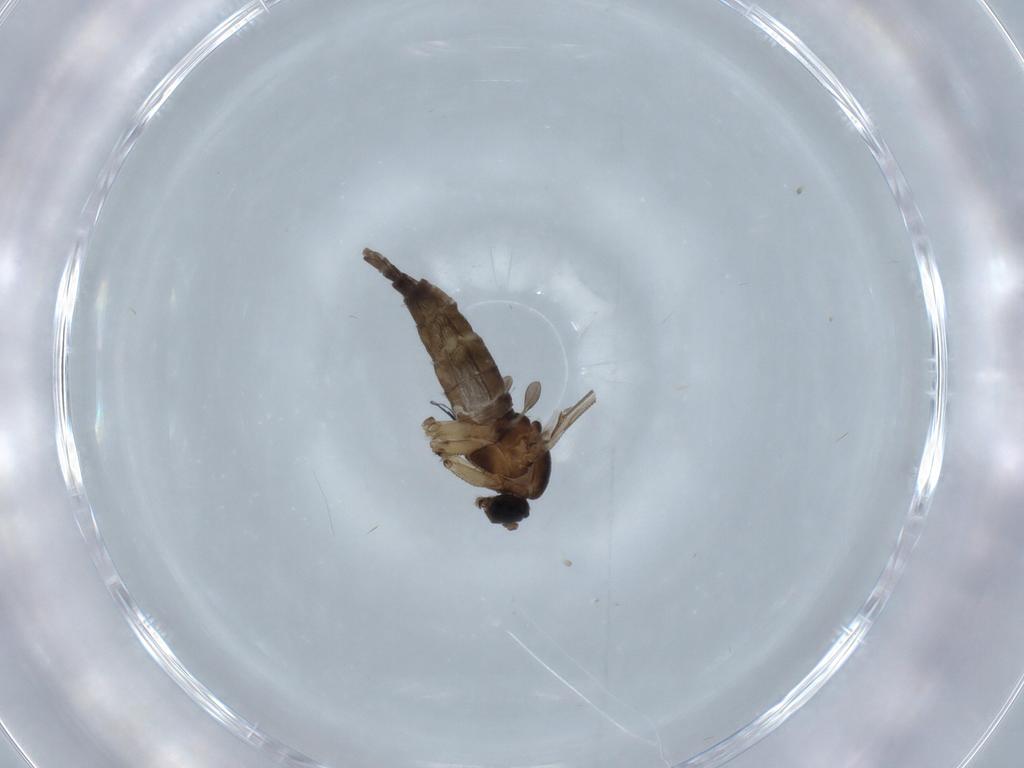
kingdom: Animalia
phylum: Arthropoda
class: Insecta
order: Diptera
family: Sciaridae
